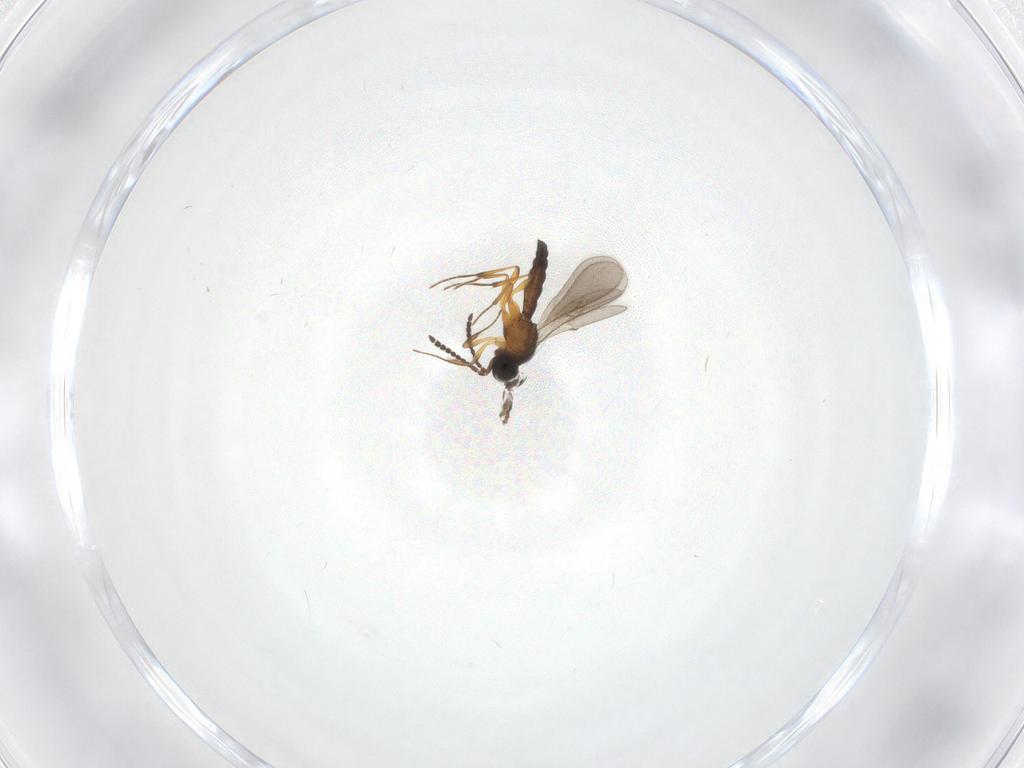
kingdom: Animalia
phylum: Arthropoda
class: Insecta
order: Hymenoptera
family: Scelionidae
